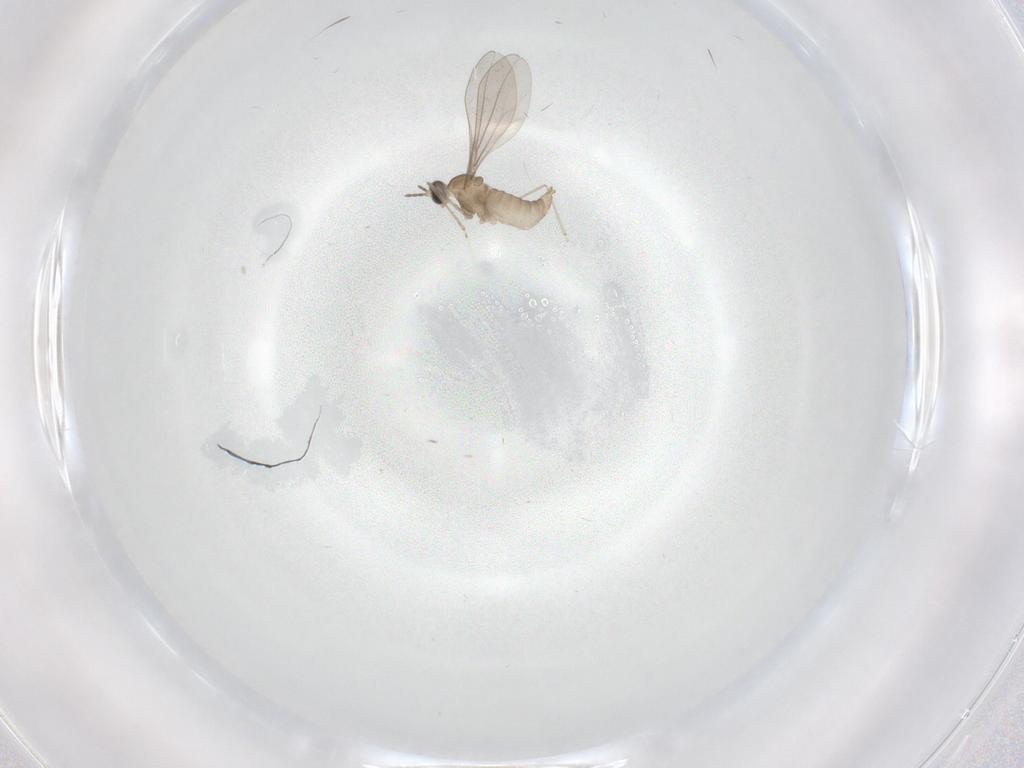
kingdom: Animalia
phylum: Arthropoda
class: Insecta
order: Diptera
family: Cecidomyiidae
